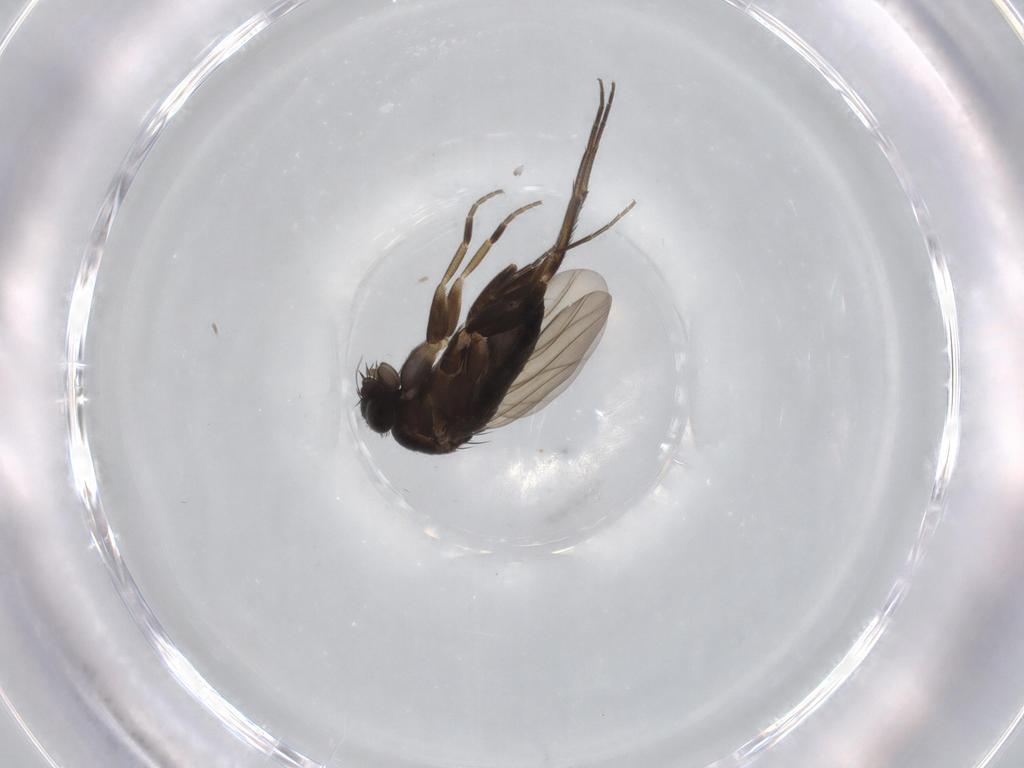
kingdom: Animalia
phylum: Arthropoda
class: Insecta
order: Diptera
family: Phoridae
